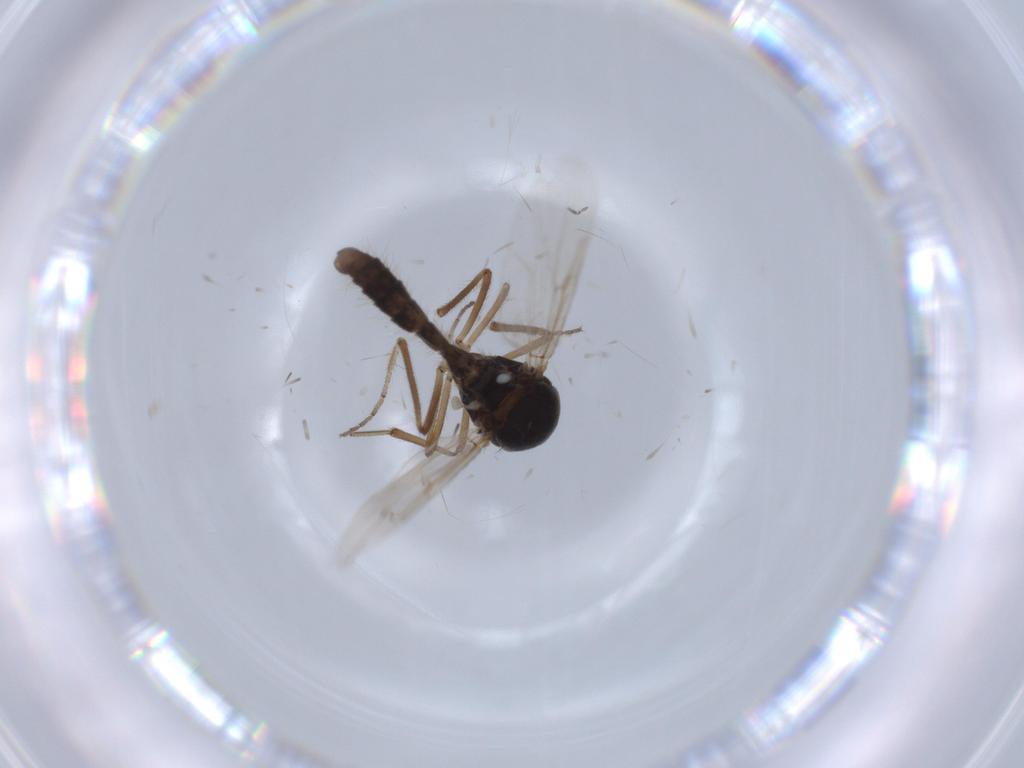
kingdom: Animalia
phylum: Arthropoda
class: Insecta
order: Diptera
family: Ceratopogonidae
